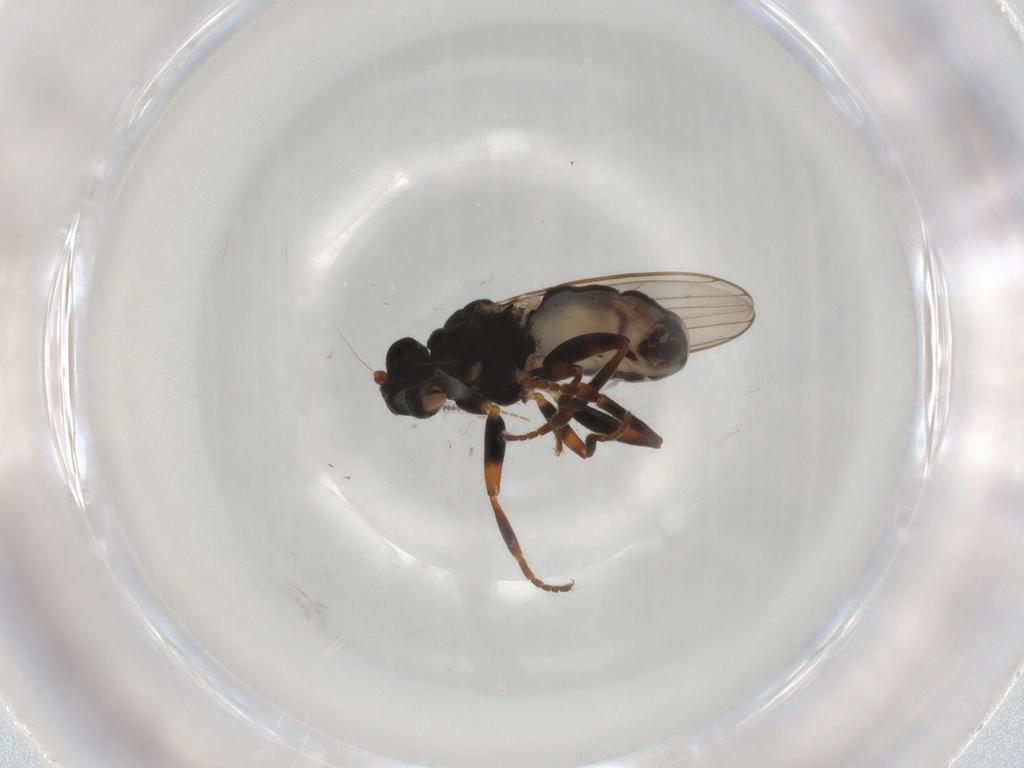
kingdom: Animalia
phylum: Arthropoda
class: Insecta
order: Diptera
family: Sphaeroceridae
